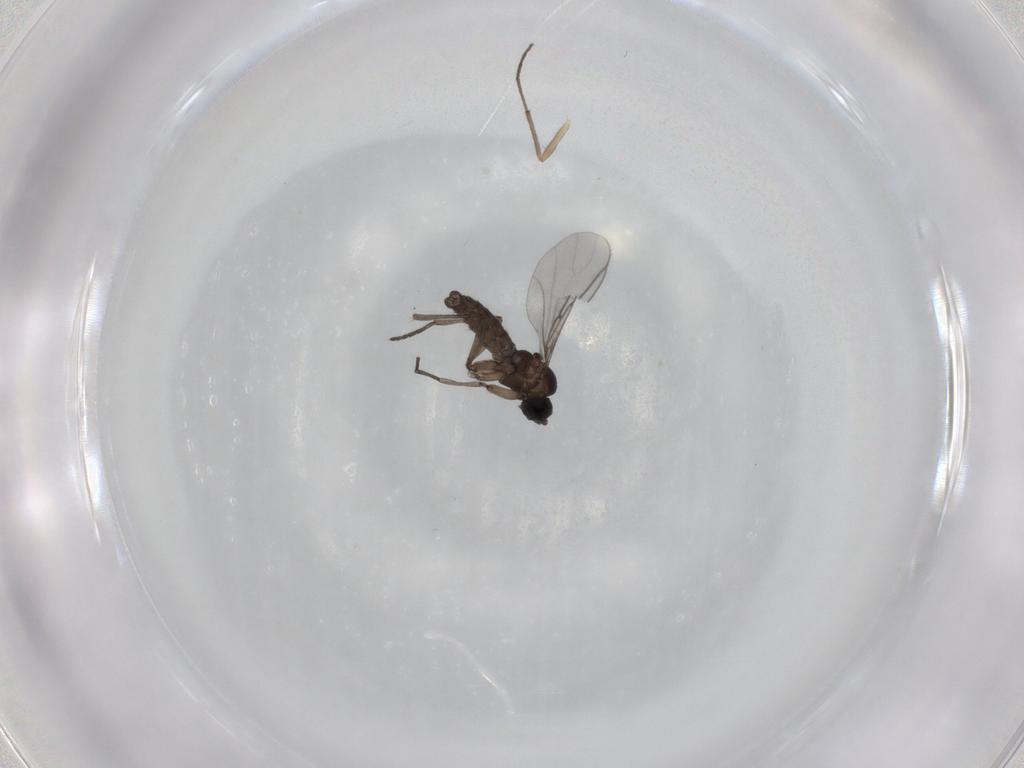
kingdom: Animalia
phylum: Arthropoda
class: Insecta
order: Diptera
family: Chironomidae
